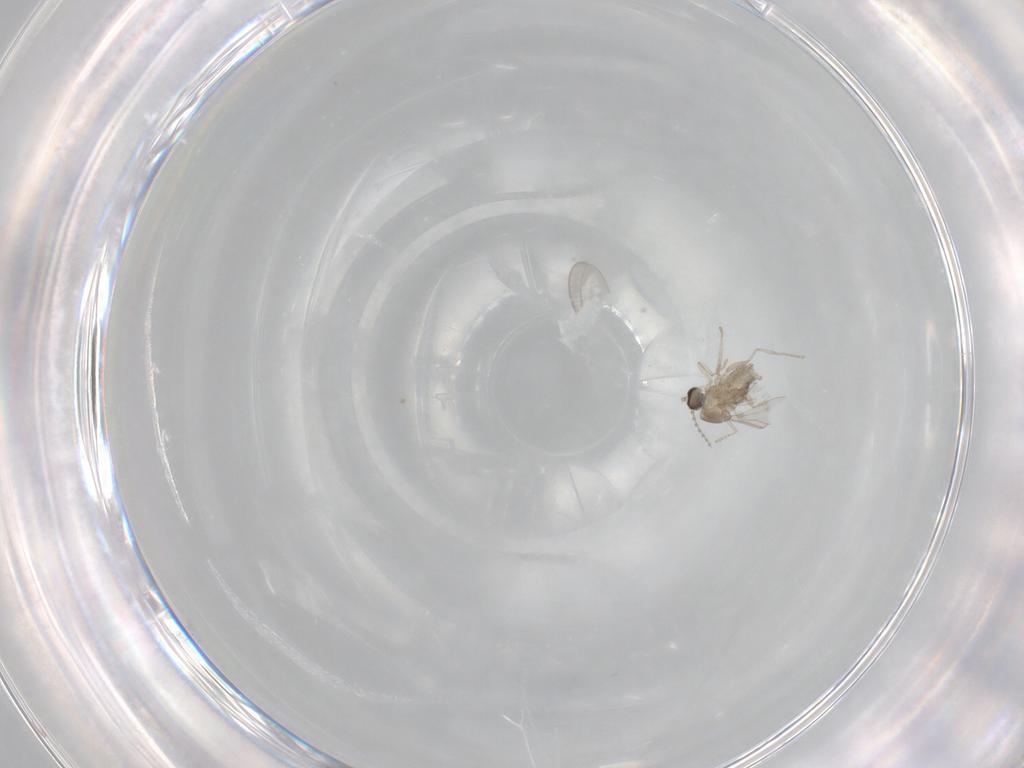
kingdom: Animalia
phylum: Arthropoda
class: Insecta
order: Diptera
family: Cecidomyiidae
